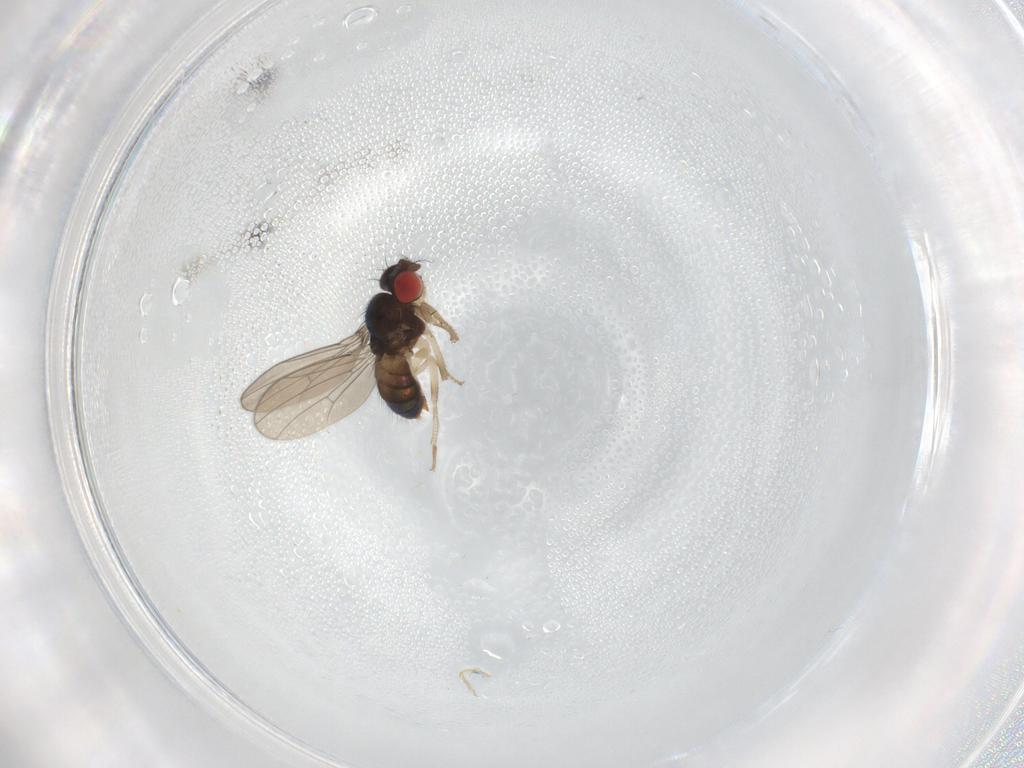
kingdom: Animalia
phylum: Arthropoda
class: Insecta
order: Diptera
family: Drosophilidae
